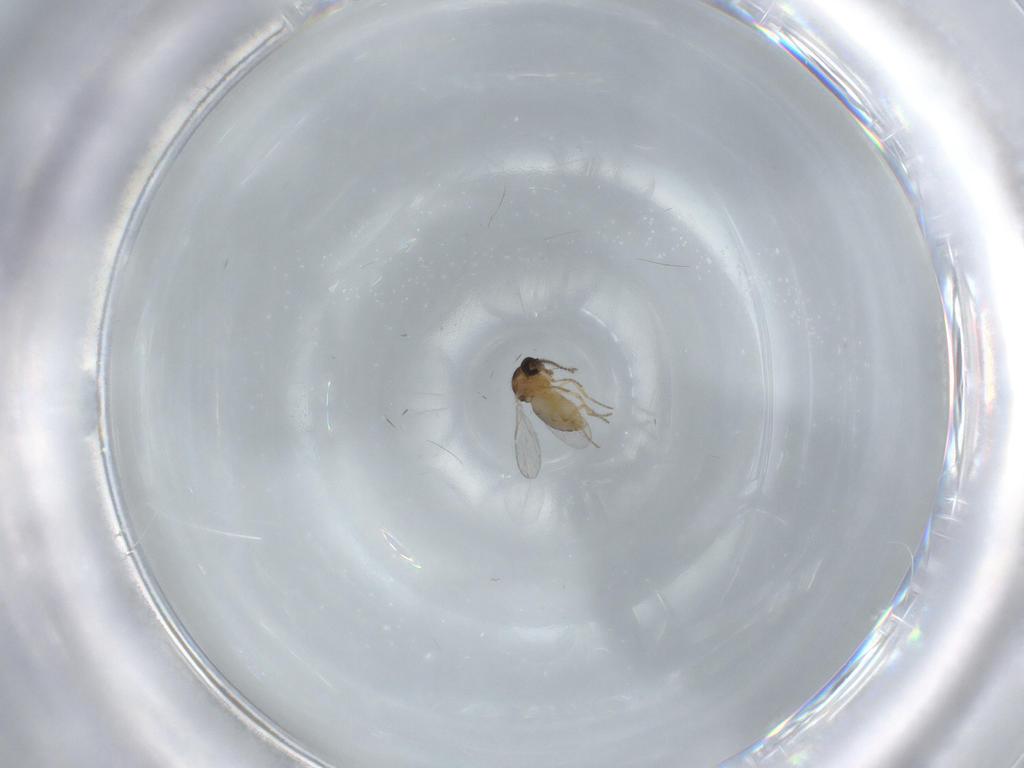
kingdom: Animalia
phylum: Arthropoda
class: Insecta
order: Diptera
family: Ceratopogonidae
